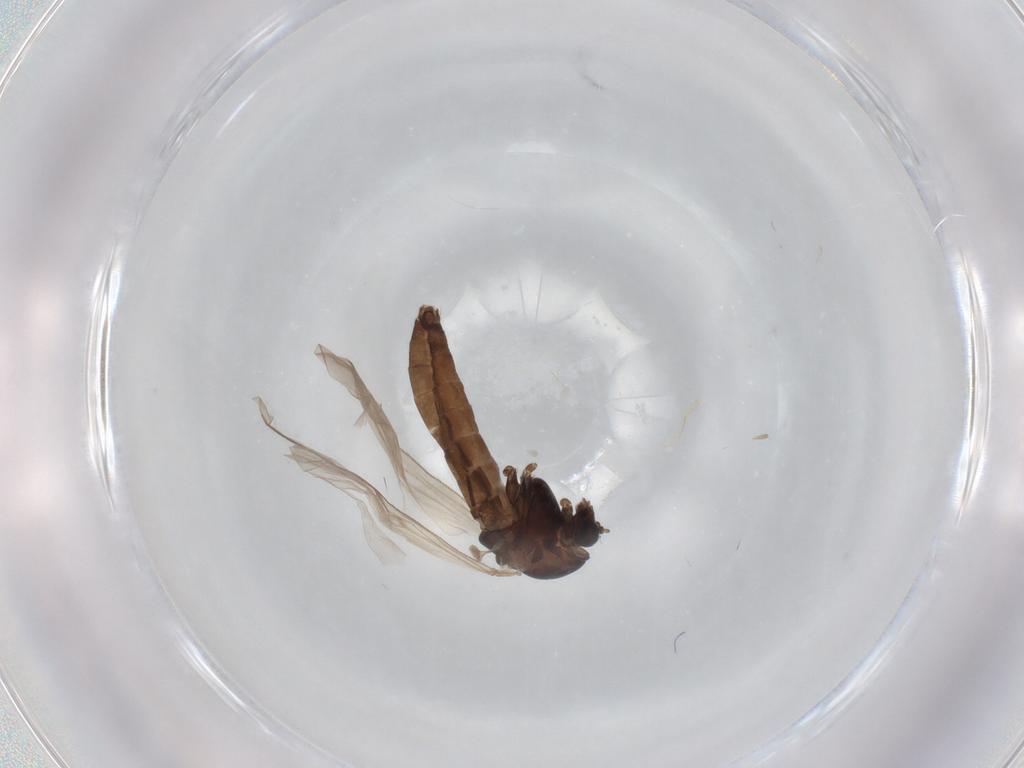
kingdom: Animalia
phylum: Arthropoda
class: Insecta
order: Diptera
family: Limoniidae
